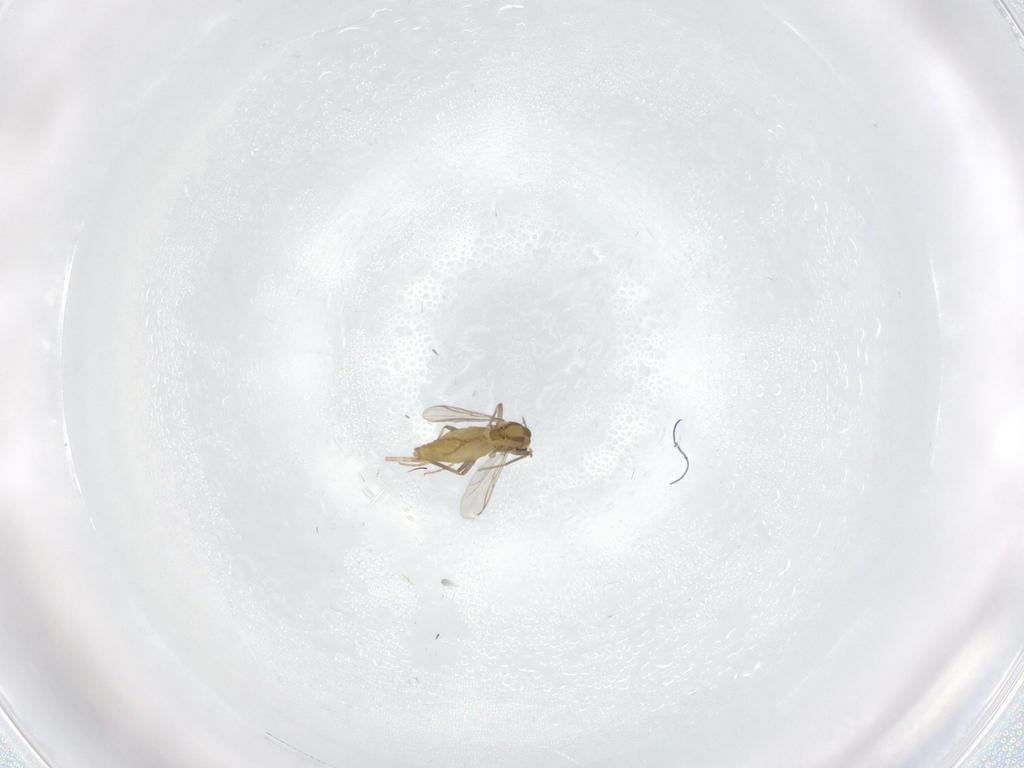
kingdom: Animalia
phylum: Arthropoda
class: Insecta
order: Diptera
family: Chironomidae
